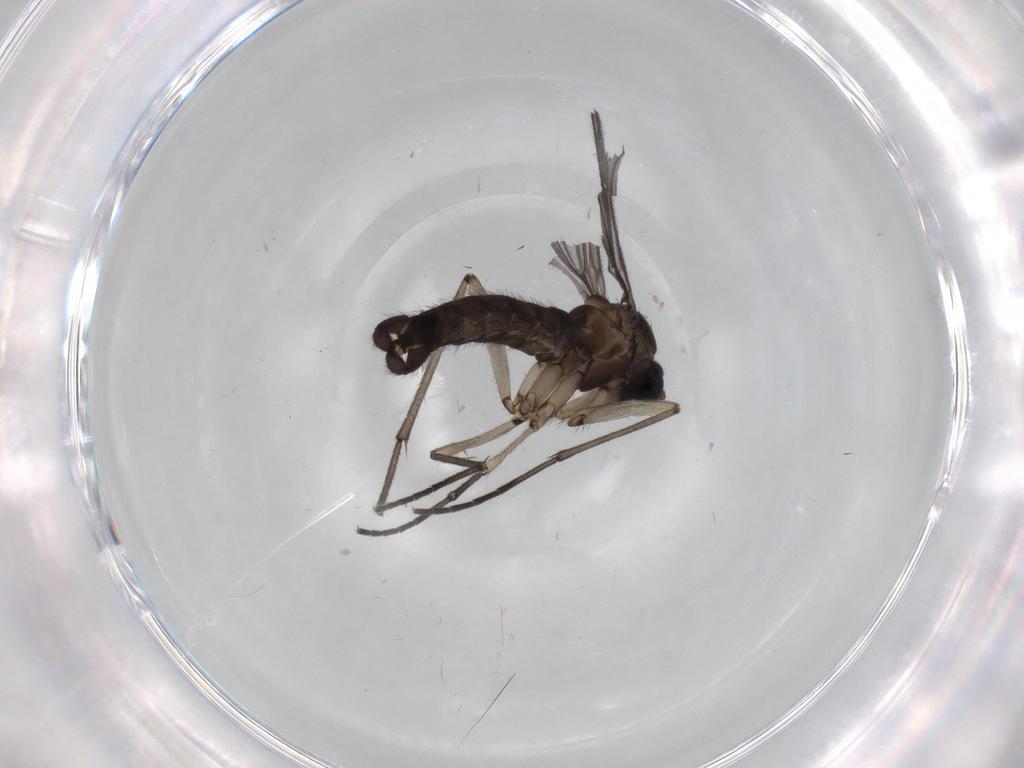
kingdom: Animalia
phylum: Arthropoda
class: Insecta
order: Diptera
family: Sciaridae
